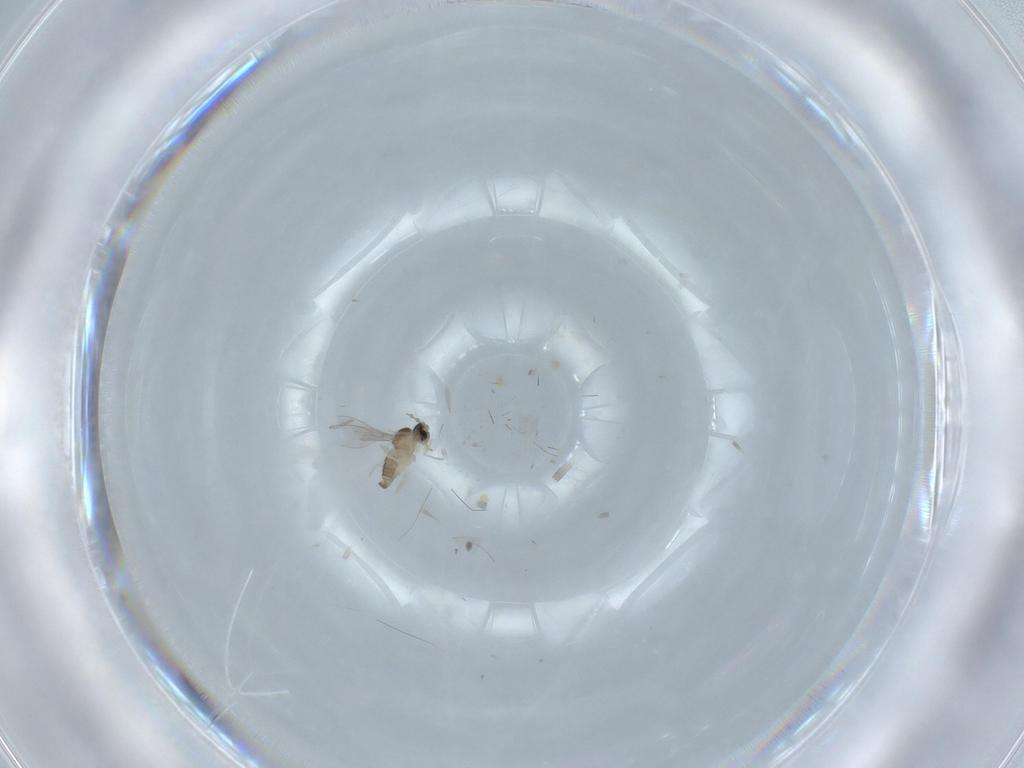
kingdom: Animalia
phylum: Arthropoda
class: Insecta
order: Diptera
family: Cecidomyiidae
